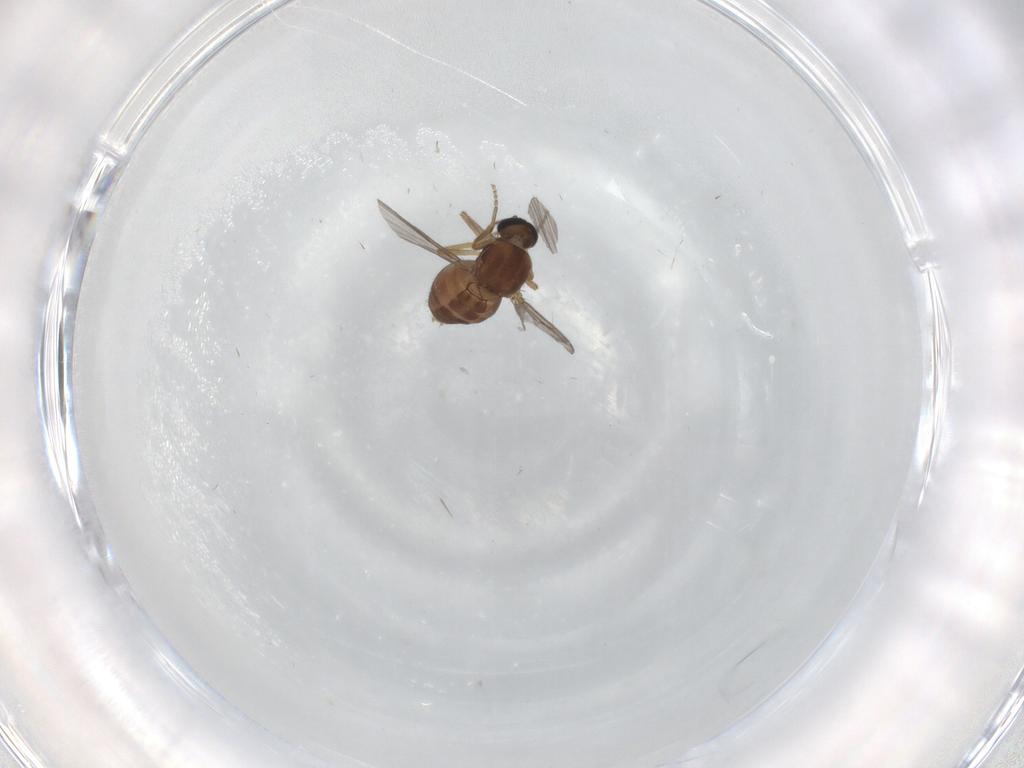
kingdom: Animalia
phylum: Arthropoda
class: Insecta
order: Diptera
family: Ceratopogonidae
